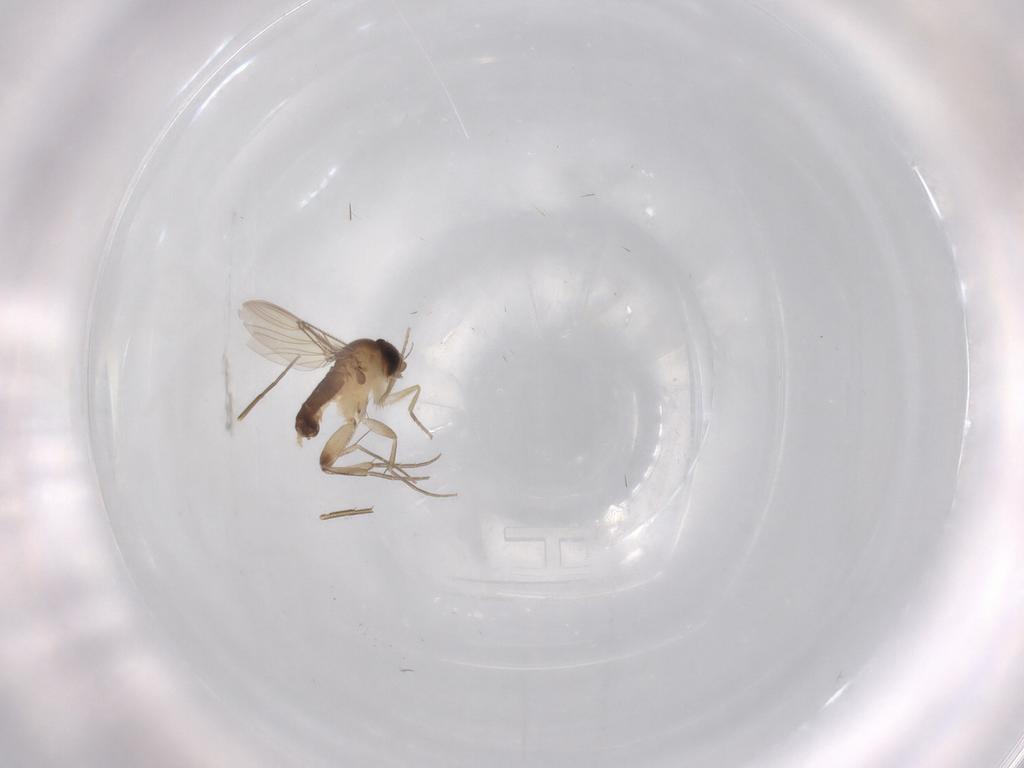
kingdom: Animalia
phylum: Arthropoda
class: Insecta
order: Diptera
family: Phoridae
